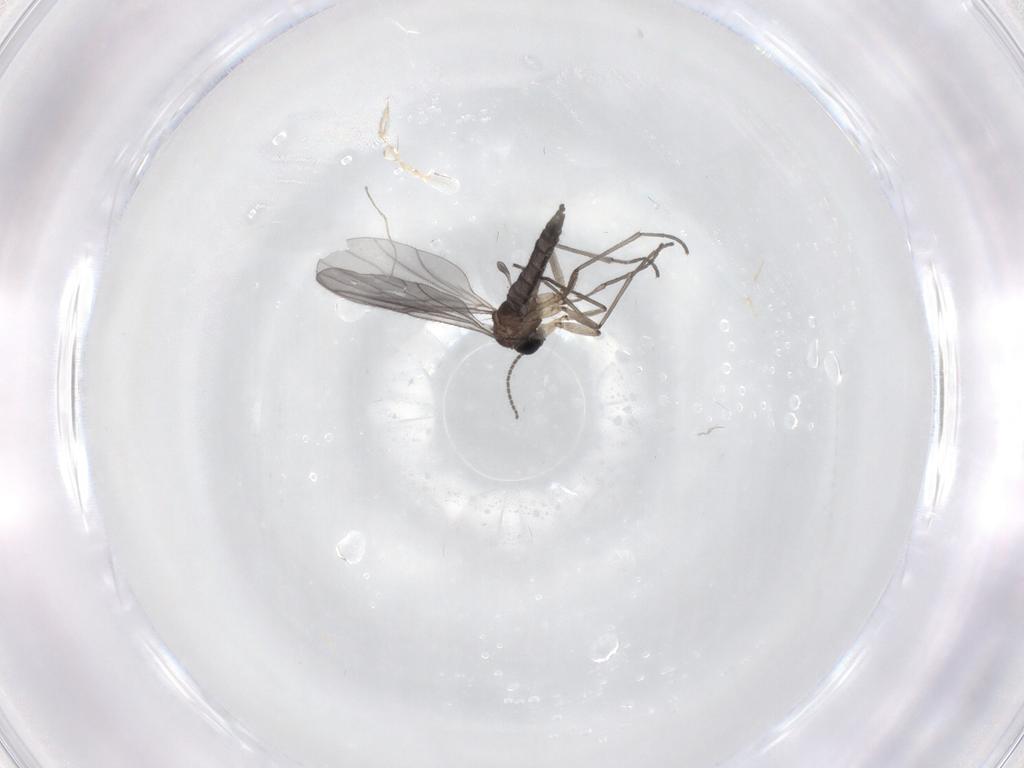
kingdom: Animalia
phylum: Arthropoda
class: Insecta
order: Diptera
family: Sciaridae
